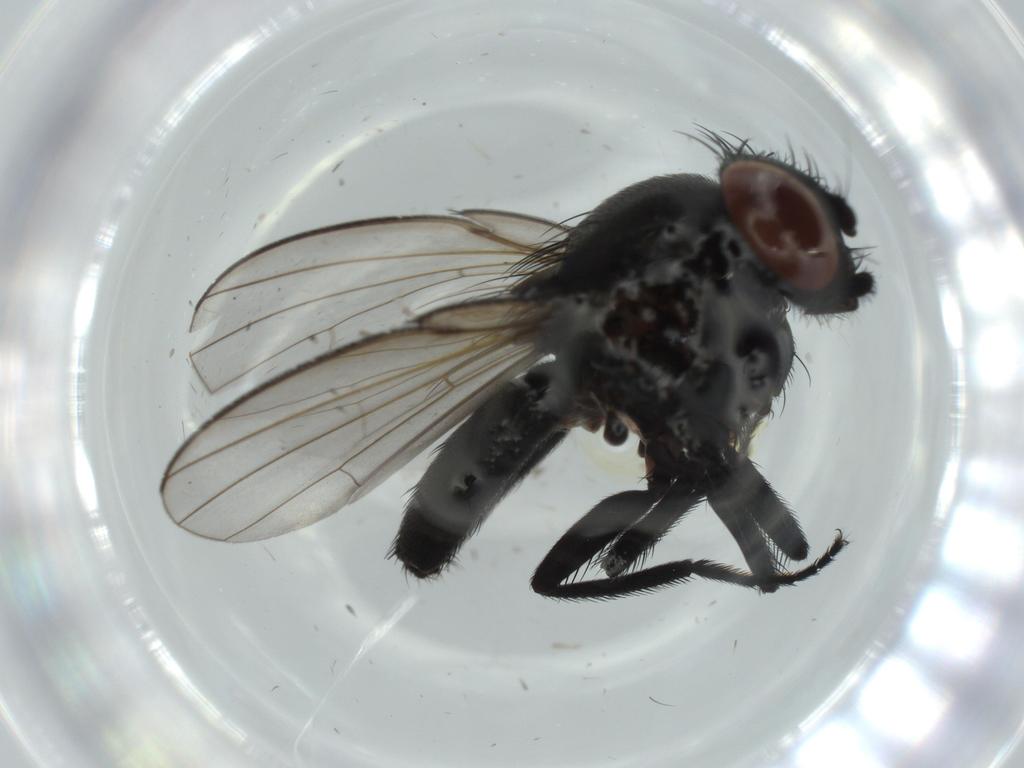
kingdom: Animalia
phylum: Arthropoda
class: Insecta
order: Diptera
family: Milichiidae
